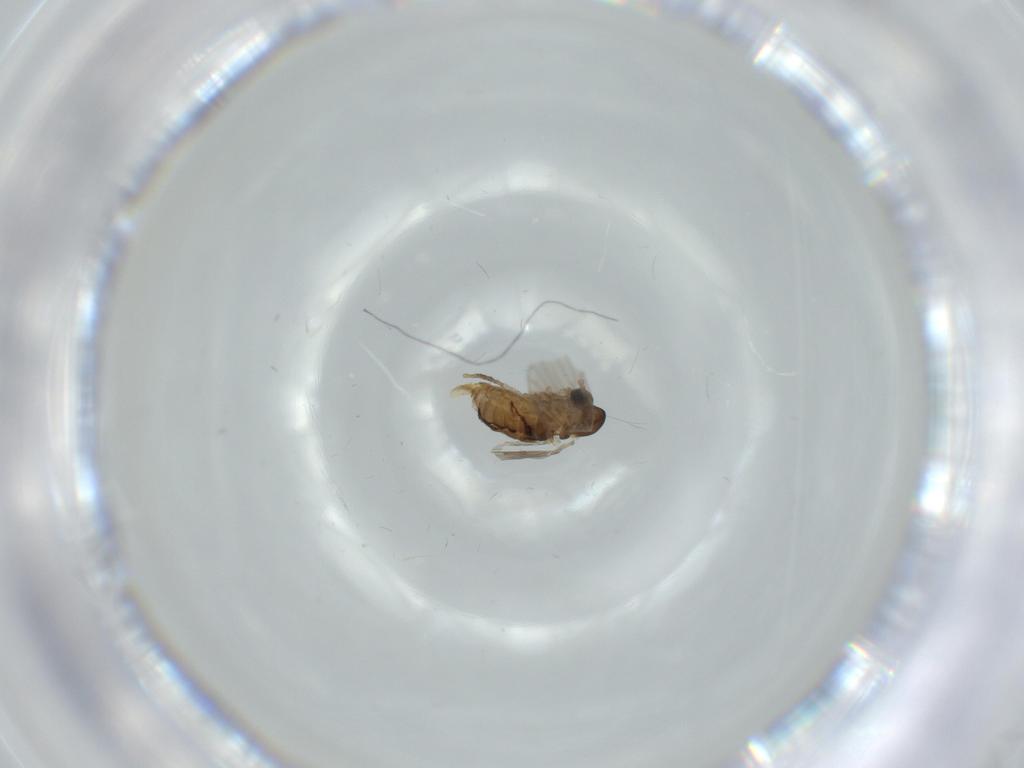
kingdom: Animalia
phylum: Arthropoda
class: Insecta
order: Diptera
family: Psychodidae
